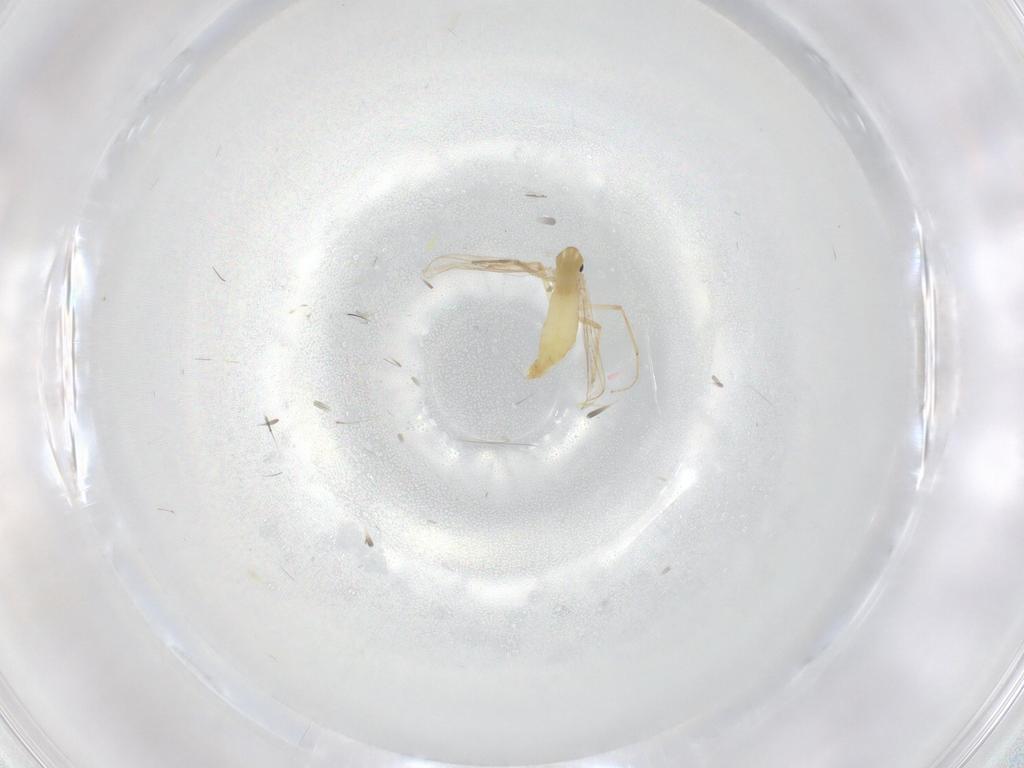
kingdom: Animalia
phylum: Arthropoda
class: Insecta
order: Diptera
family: Chironomidae
